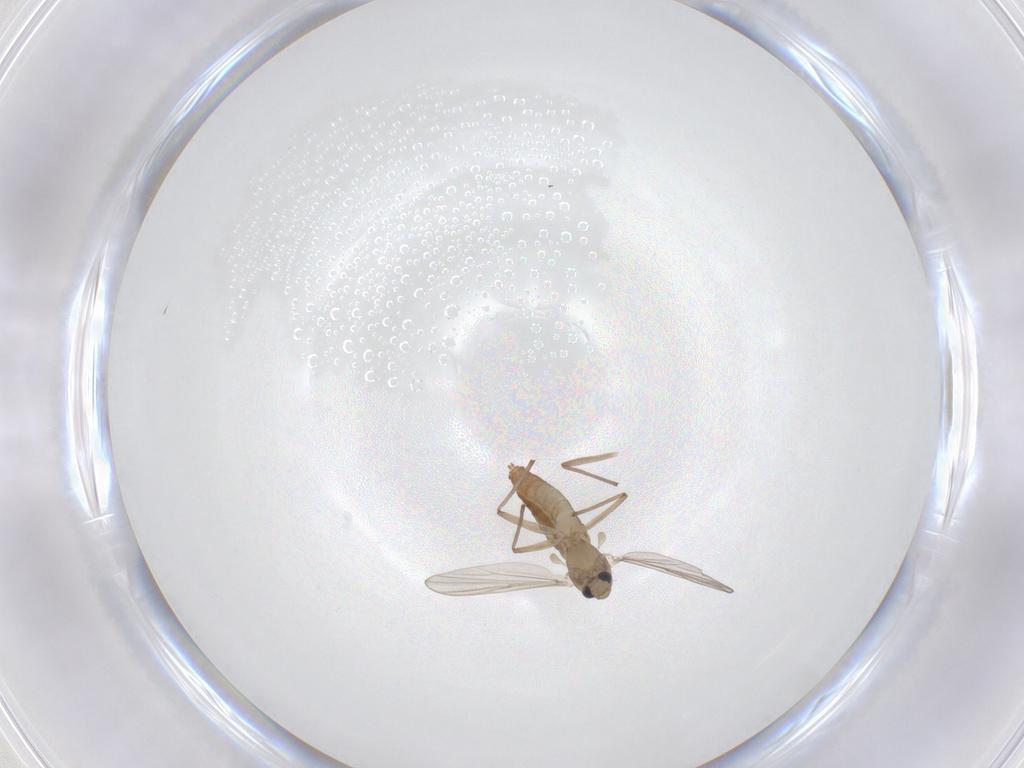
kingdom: Animalia
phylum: Arthropoda
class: Insecta
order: Diptera
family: Chironomidae
